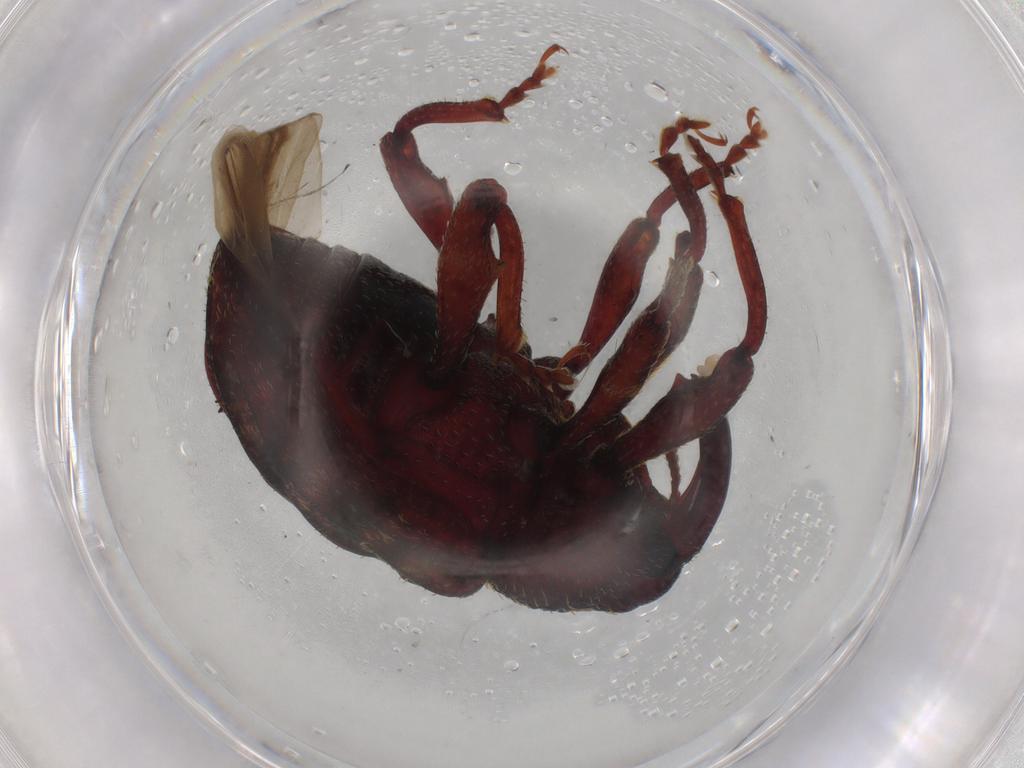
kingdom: Animalia
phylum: Arthropoda
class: Insecta
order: Coleoptera
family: Curculionidae
